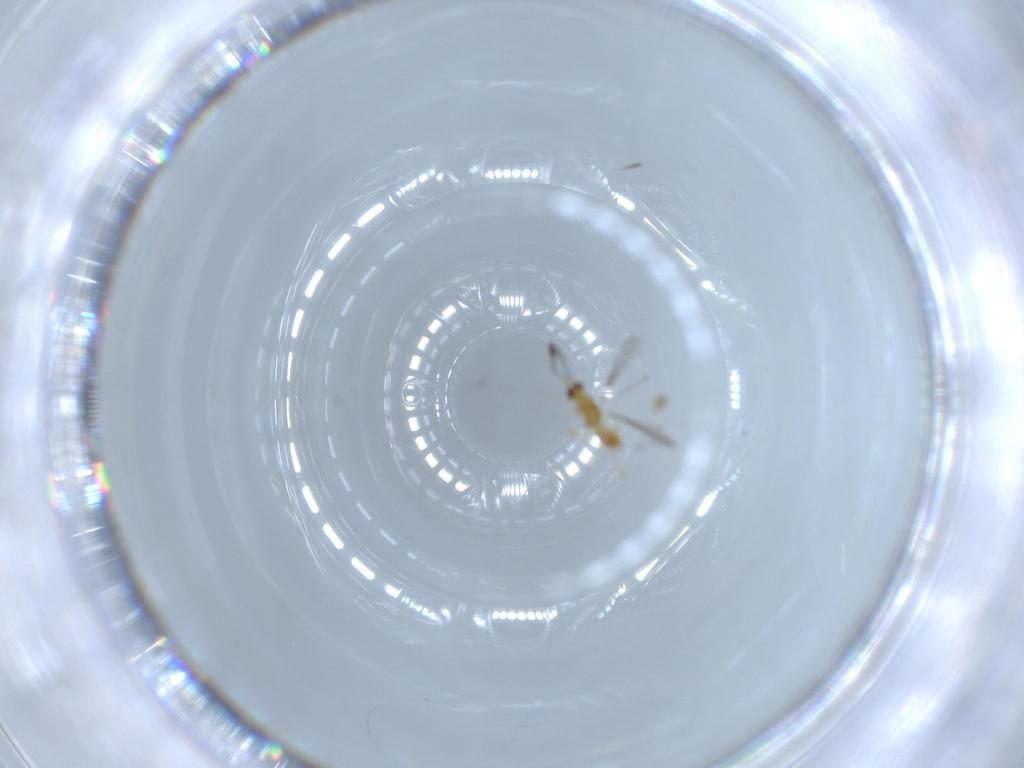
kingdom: Animalia
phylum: Arthropoda
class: Insecta
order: Hymenoptera
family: Mymaridae
